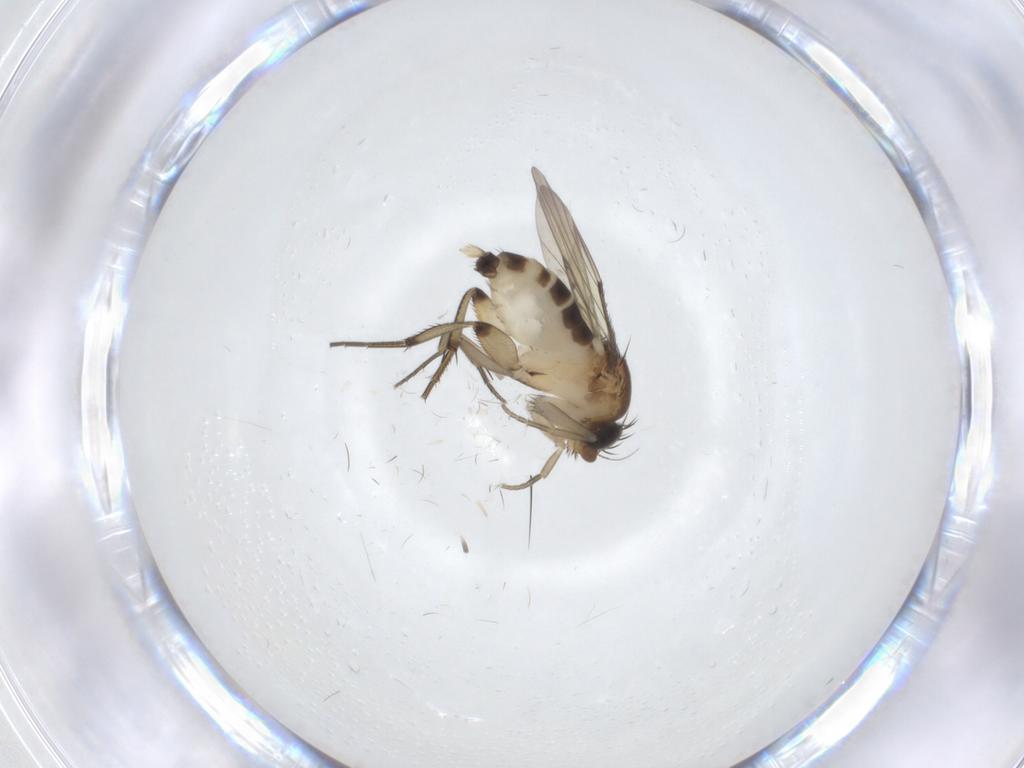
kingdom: Animalia
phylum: Arthropoda
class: Insecta
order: Diptera
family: Phoridae
